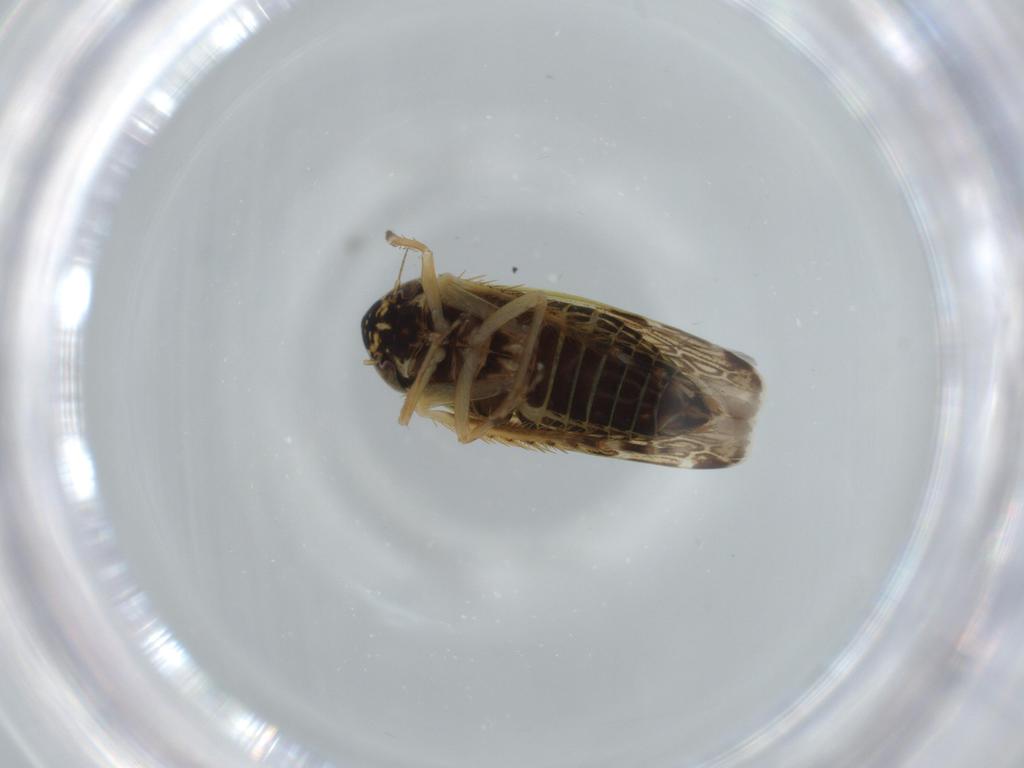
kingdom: Animalia
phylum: Arthropoda
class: Insecta
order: Hemiptera
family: Cicadellidae
